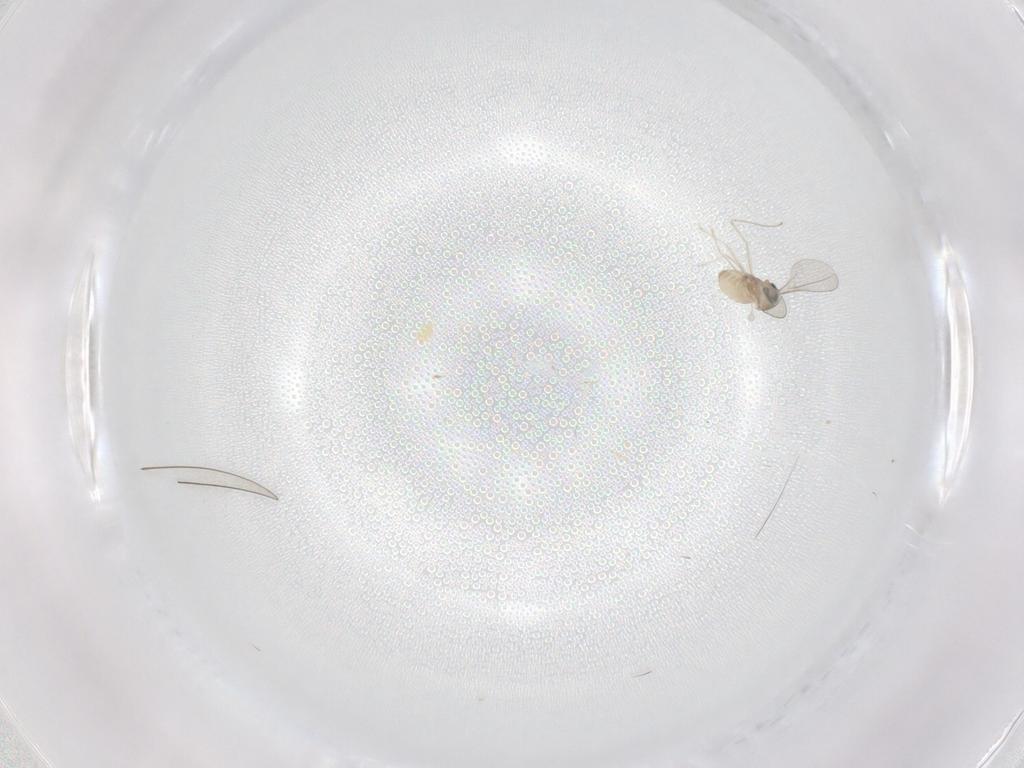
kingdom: Animalia
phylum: Arthropoda
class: Insecta
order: Diptera
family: Cecidomyiidae
